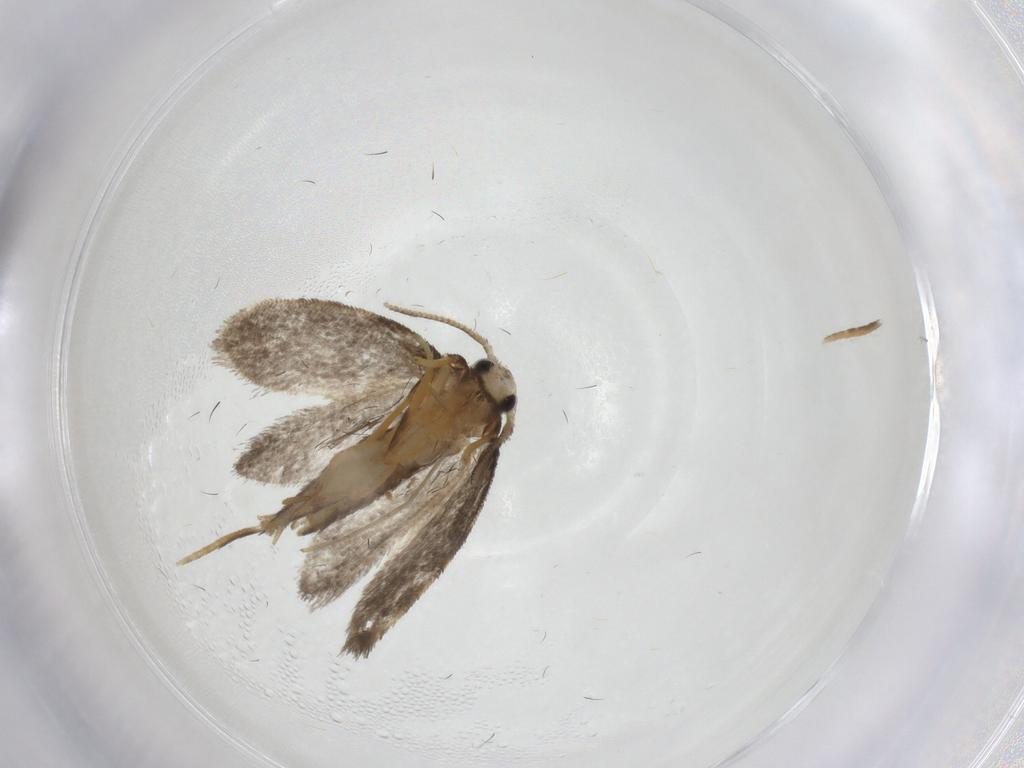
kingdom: Animalia
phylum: Arthropoda
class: Insecta
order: Lepidoptera
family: Psychidae
